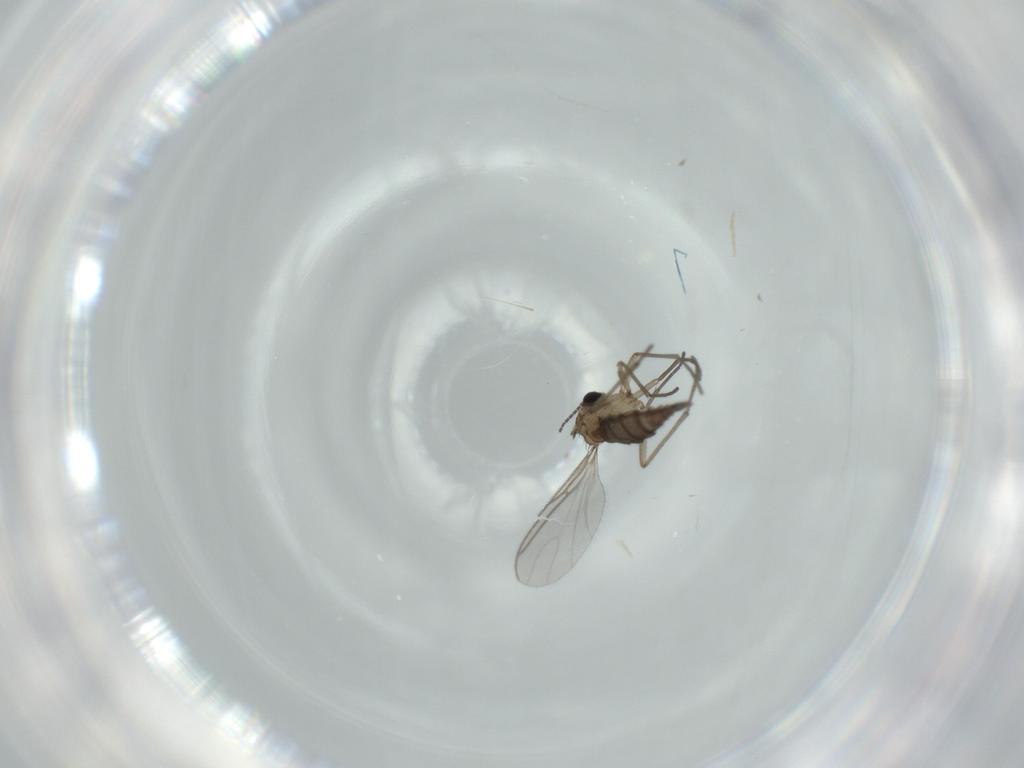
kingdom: Animalia
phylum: Arthropoda
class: Insecta
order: Diptera
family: Sciaridae
